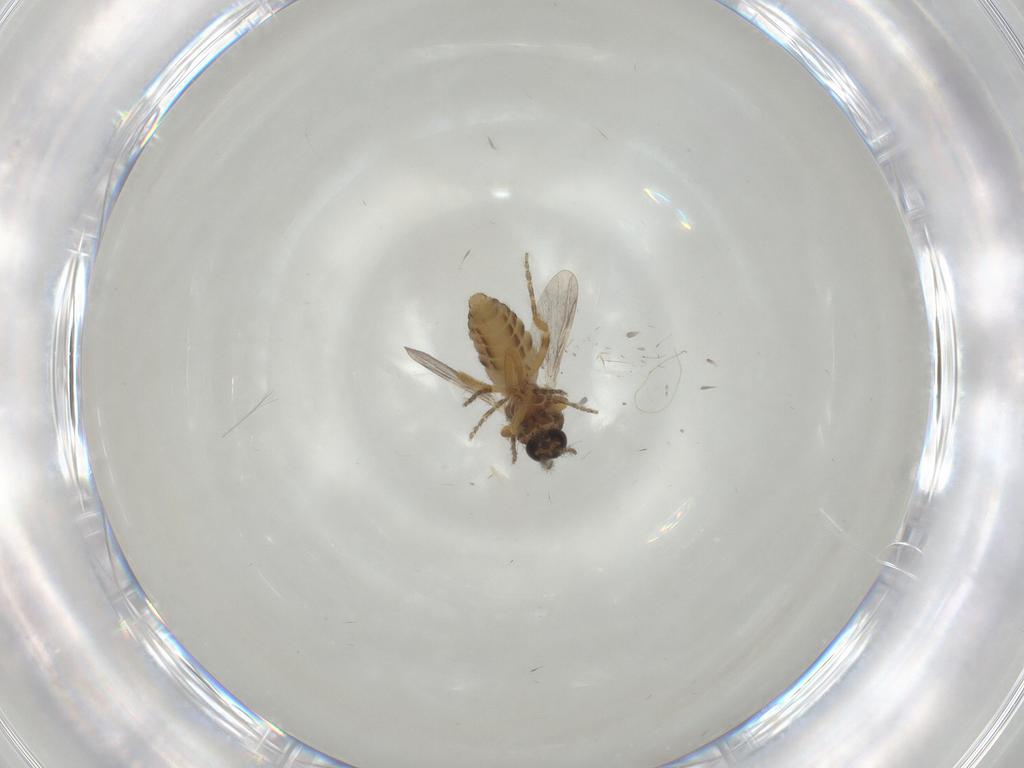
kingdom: Animalia
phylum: Arthropoda
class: Insecta
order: Diptera
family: Ceratopogonidae
